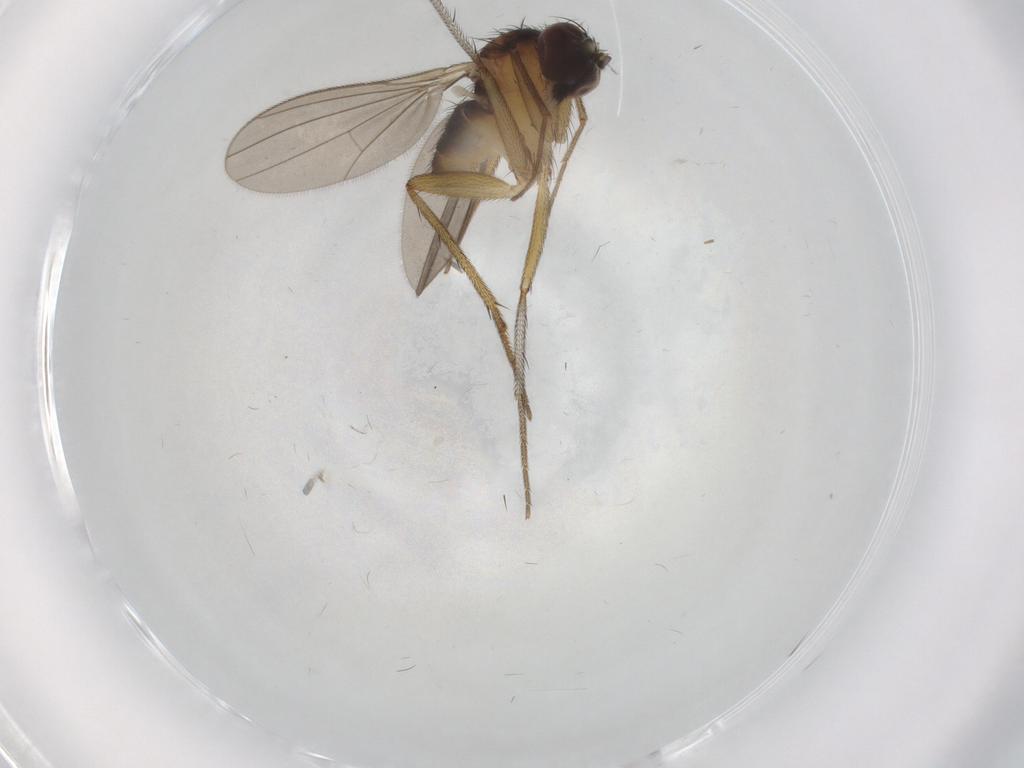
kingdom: Animalia
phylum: Arthropoda
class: Insecta
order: Diptera
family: Dolichopodidae
